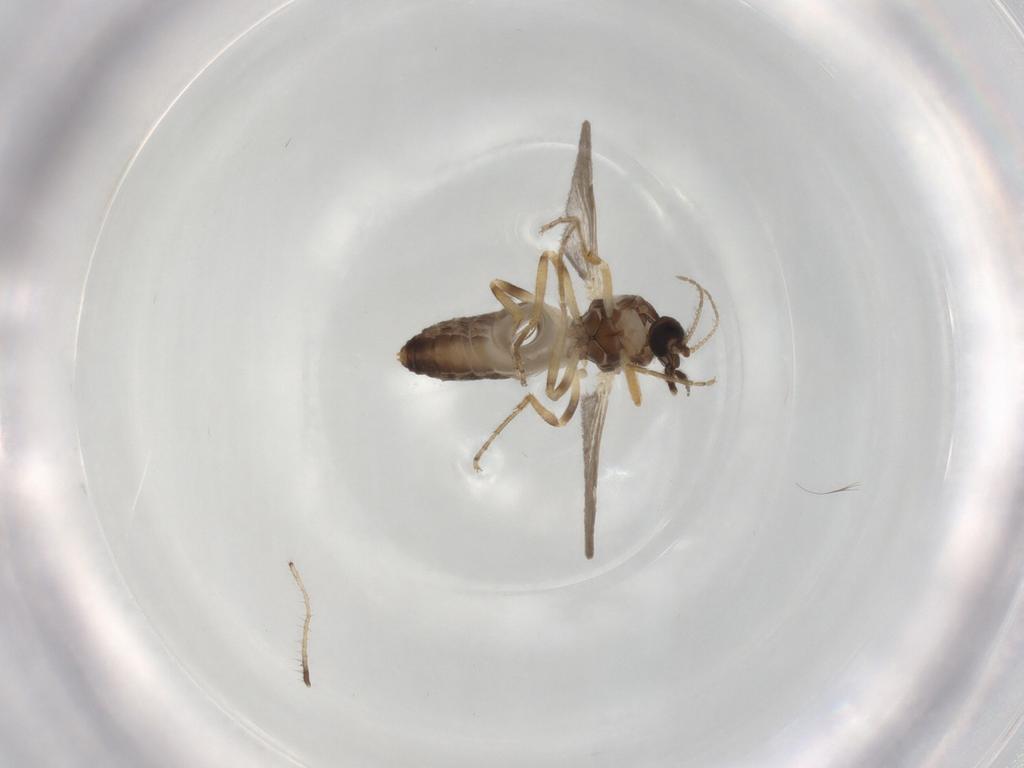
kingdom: Animalia
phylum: Arthropoda
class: Insecta
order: Diptera
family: Ceratopogonidae
